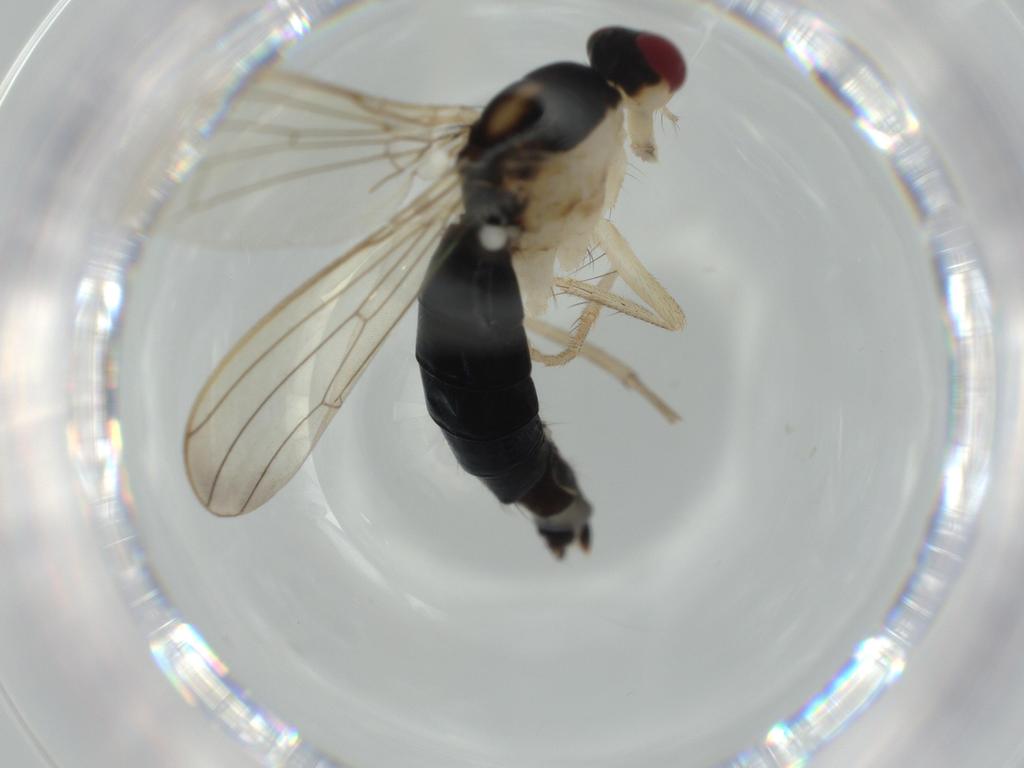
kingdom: Animalia
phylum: Arthropoda
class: Insecta
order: Diptera
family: Scathophagidae
